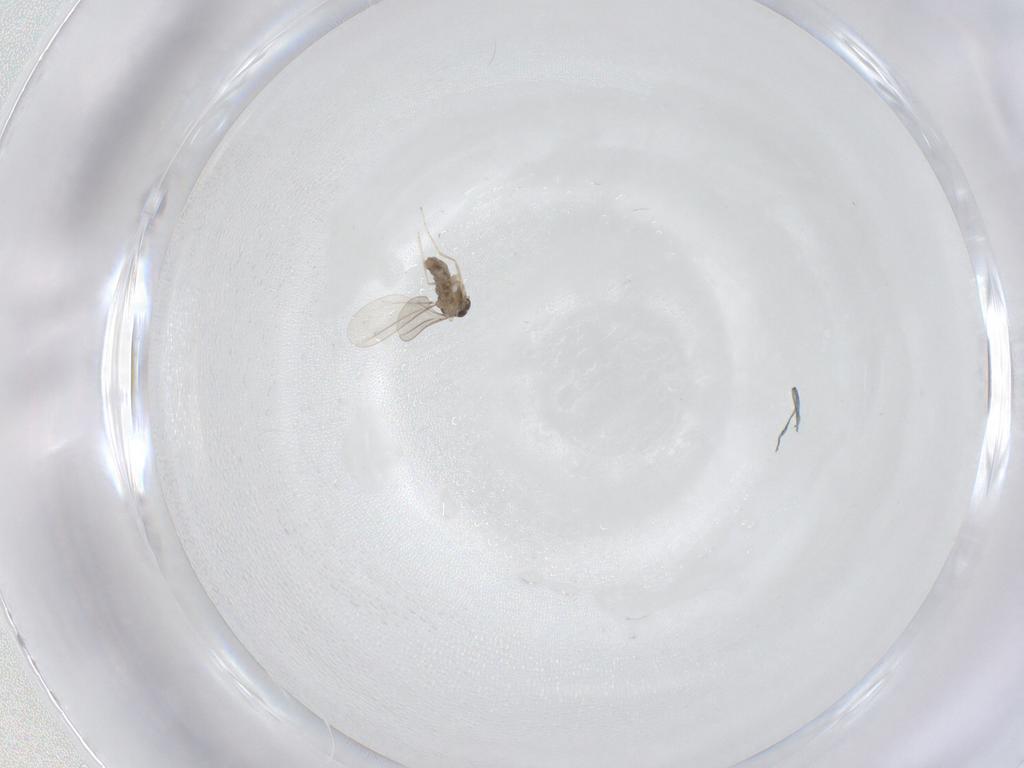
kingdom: Animalia
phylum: Arthropoda
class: Insecta
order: Diptera
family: Cecidomyiidae
